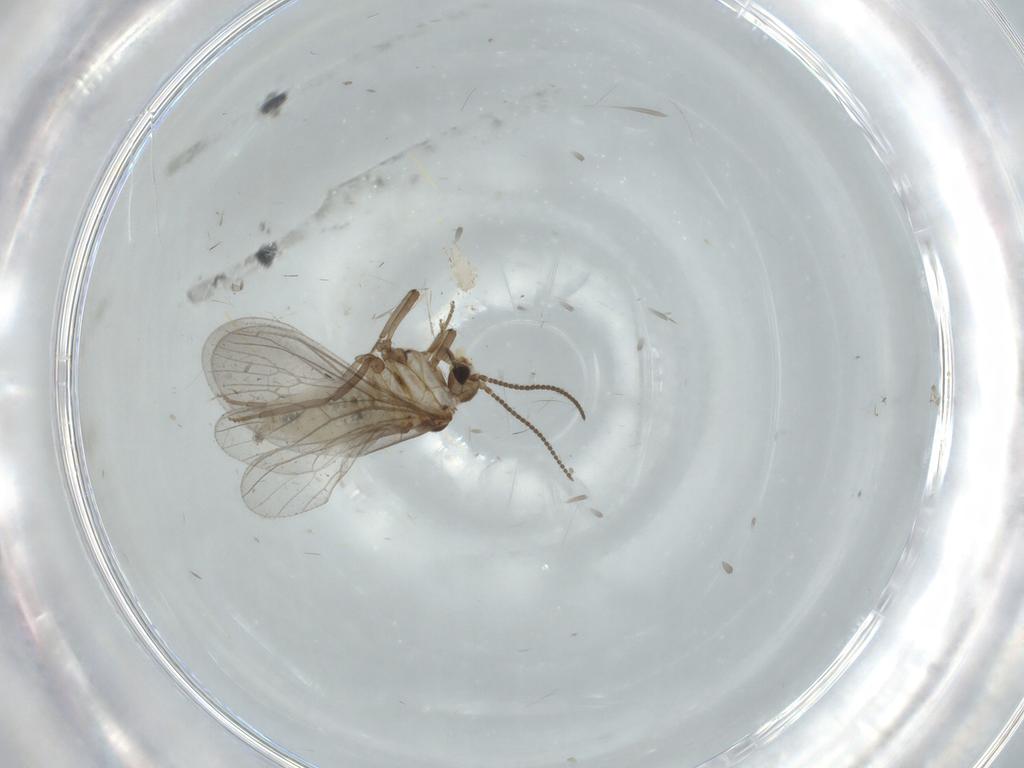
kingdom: Animalia
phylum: Arthropoda
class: Insecta
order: Neuroptera
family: Coniopterygidae
